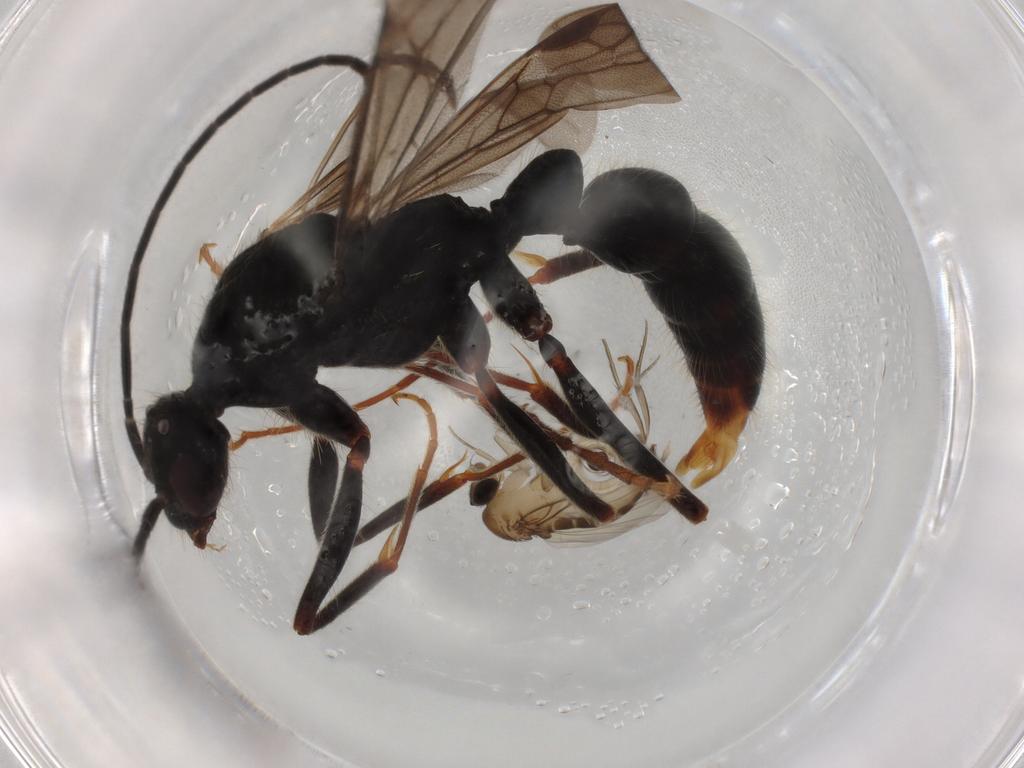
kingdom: Animalia
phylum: Arthropoda
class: Insecta
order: Diptera
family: Phoridae
